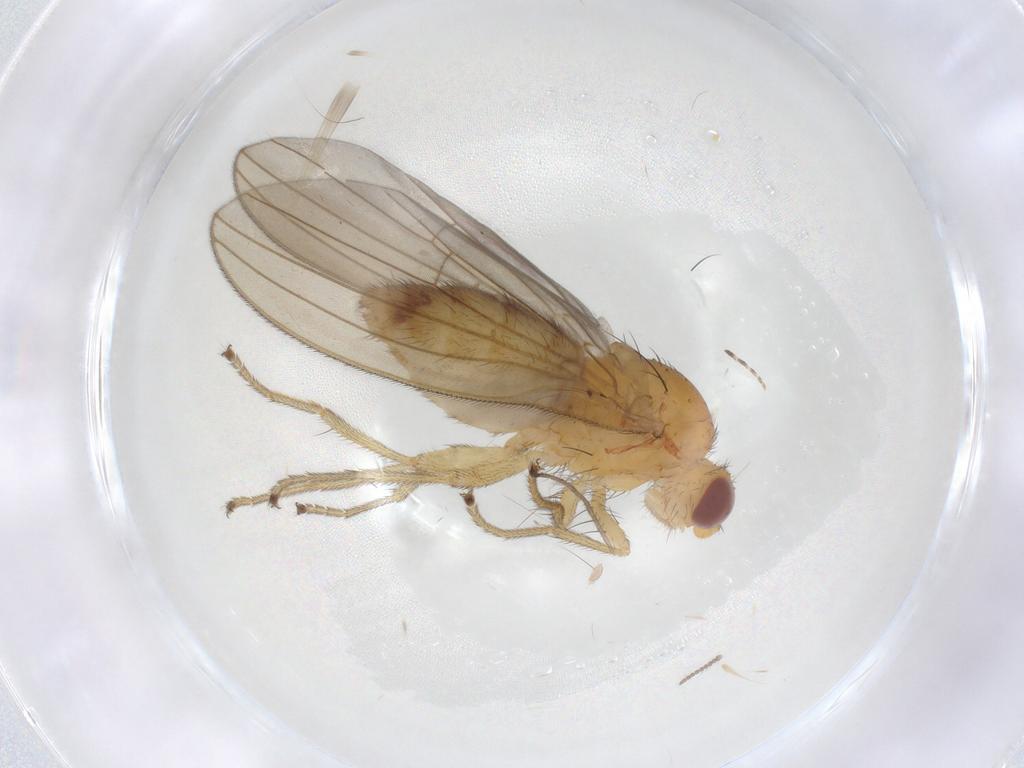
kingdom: Animalia
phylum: Arthropoda
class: Insecta
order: Diptera
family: Natalimyzidae
